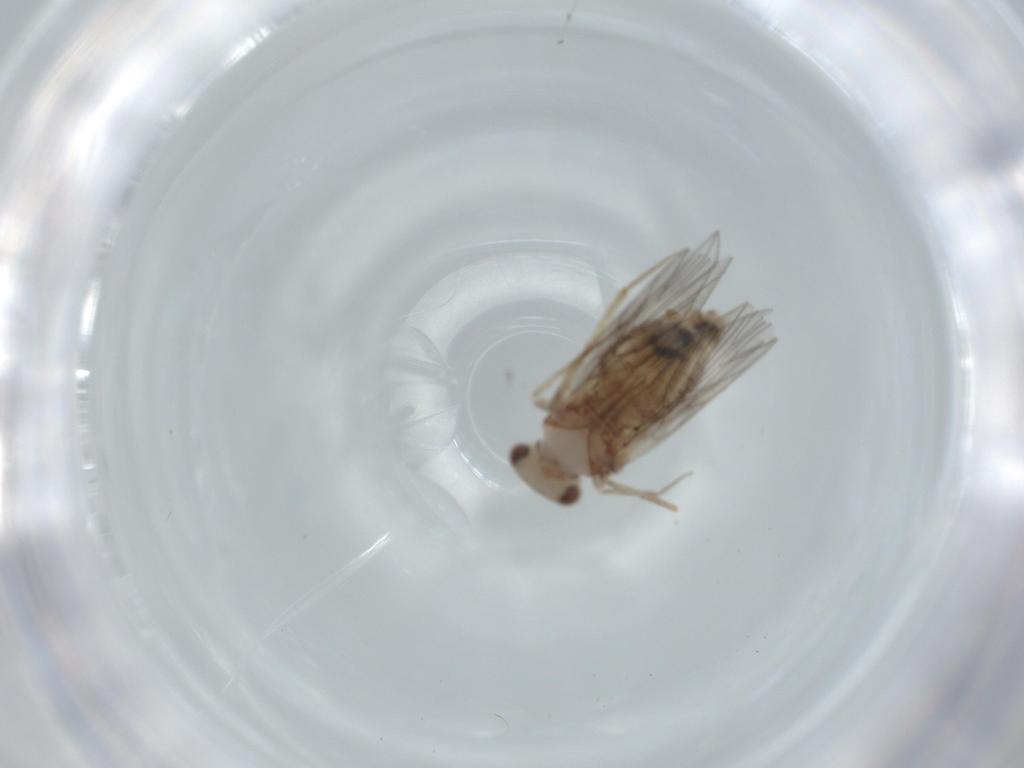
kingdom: Animalia
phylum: Arthropoda
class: Insecta
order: Psocodea
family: Lepidopsocidae
